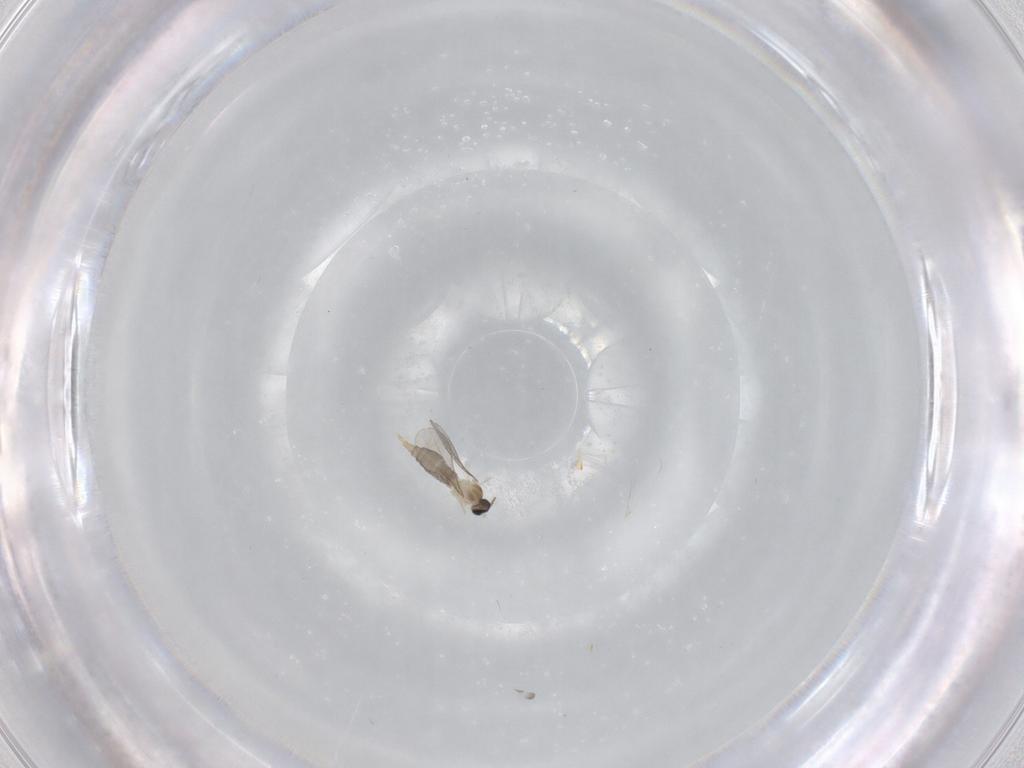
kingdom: Animalia
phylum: Arthropoda
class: Insecta
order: Diptera
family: Cecidomyiidae
